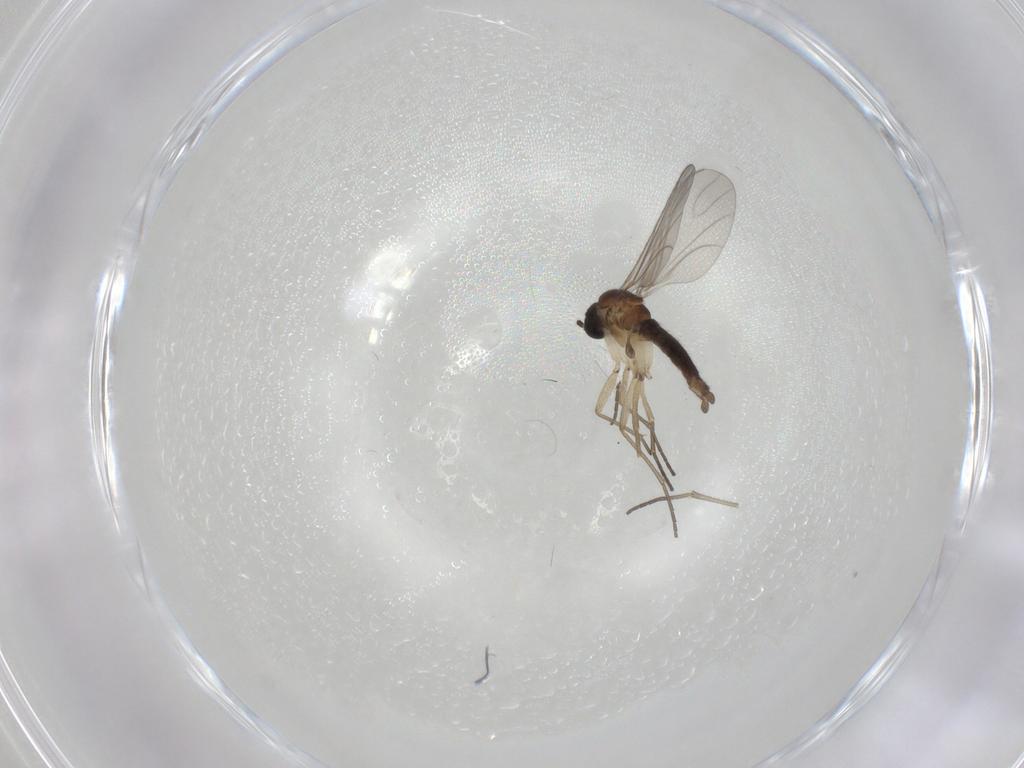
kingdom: Animalia
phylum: Arthropoda
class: Insecta
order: Diptera
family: Sciaridae
